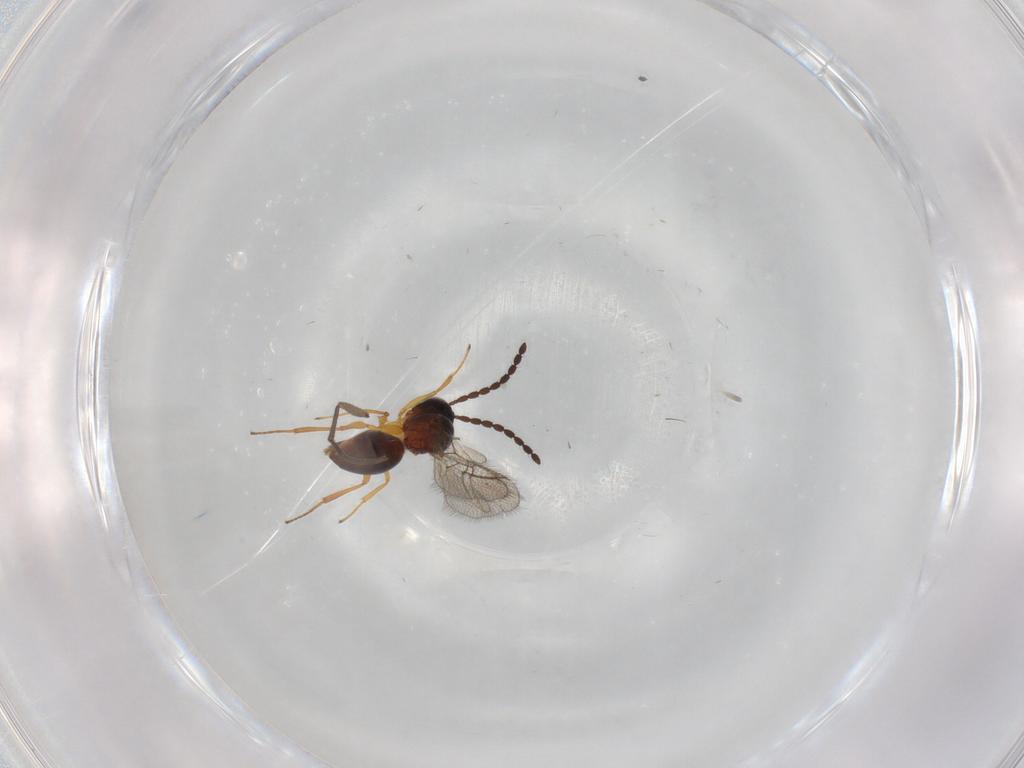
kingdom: Animalia
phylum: Arthropoda
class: Insecta
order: Hymenoptera
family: Figitidae
